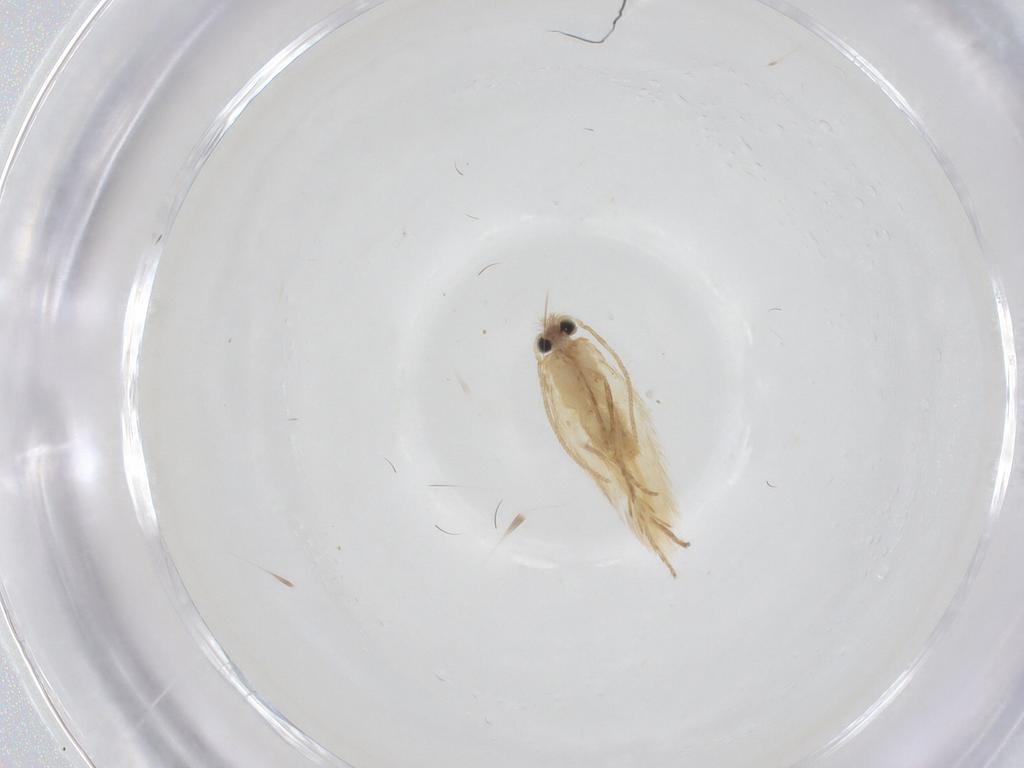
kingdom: Animalia
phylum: Arthropoda
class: Insecta
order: Lepidoptera
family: Nepticulidae
